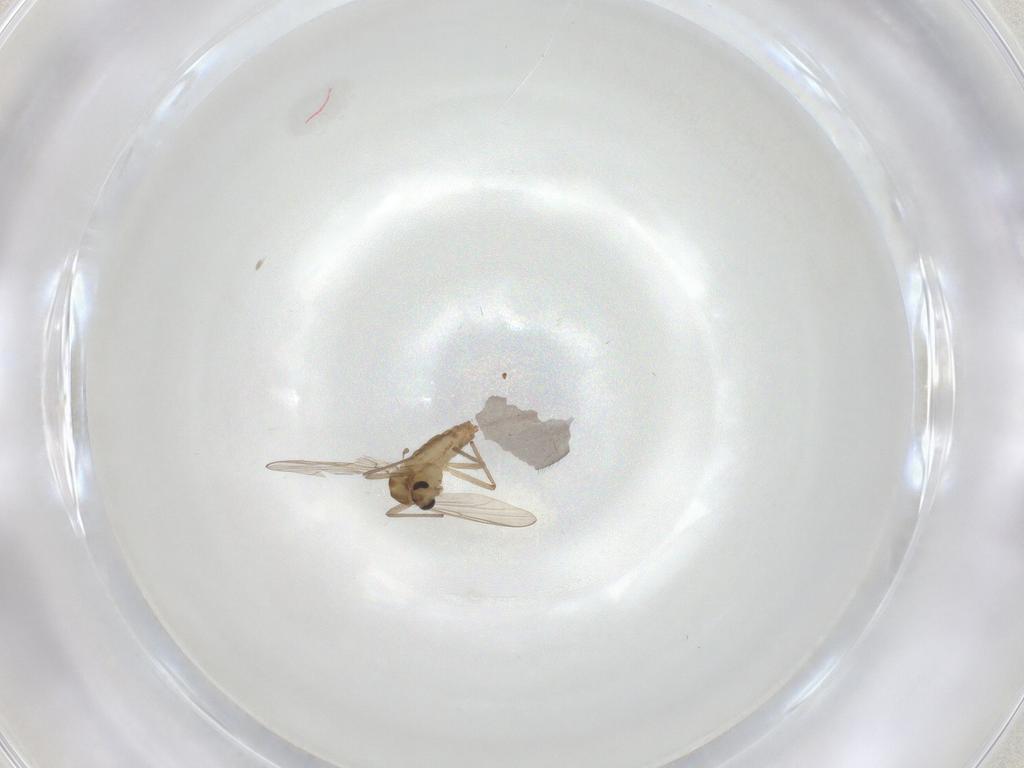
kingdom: Animalia
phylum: Arthropoda
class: Insecta
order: Diptera
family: Chironomidae
